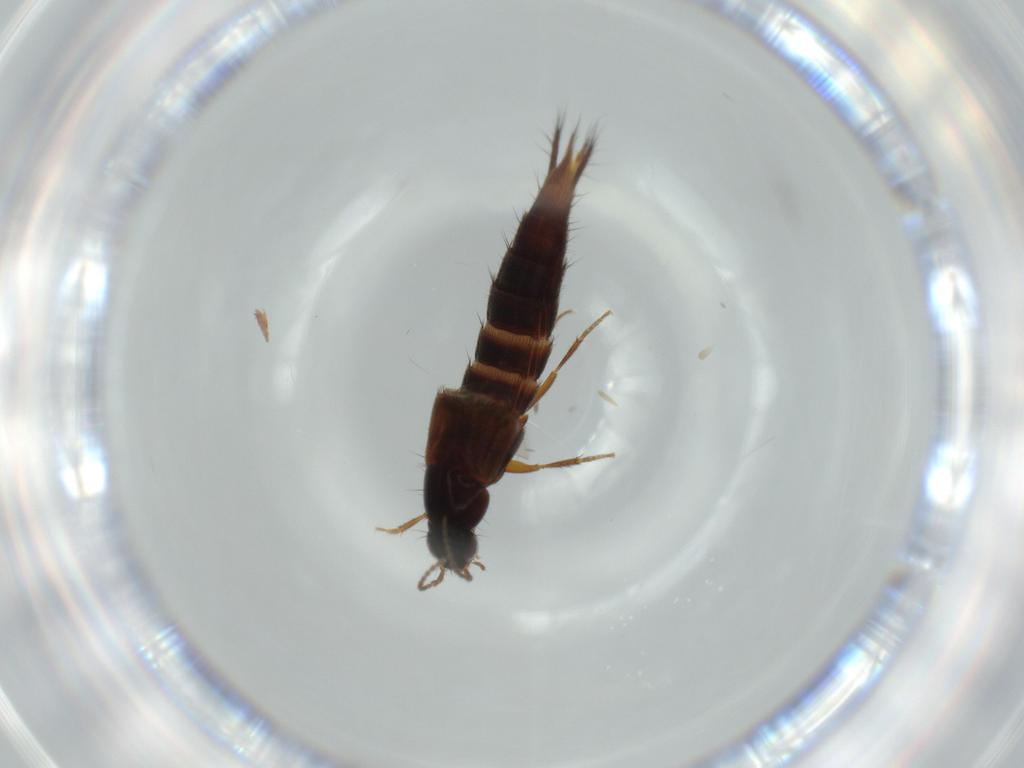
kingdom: Animalia
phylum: Arthropoda
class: Insecta
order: Coleoptera
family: Staphylinidae
